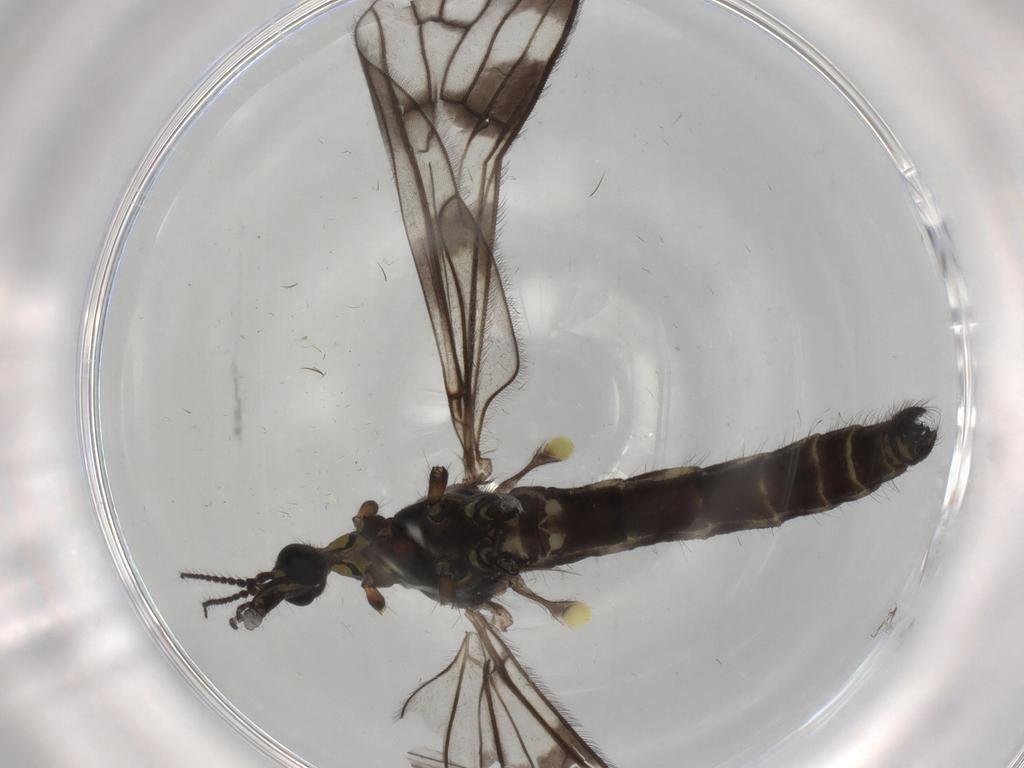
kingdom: Animalia
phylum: Arthropoda
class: Insecta
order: Diptera
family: Limoniidae
